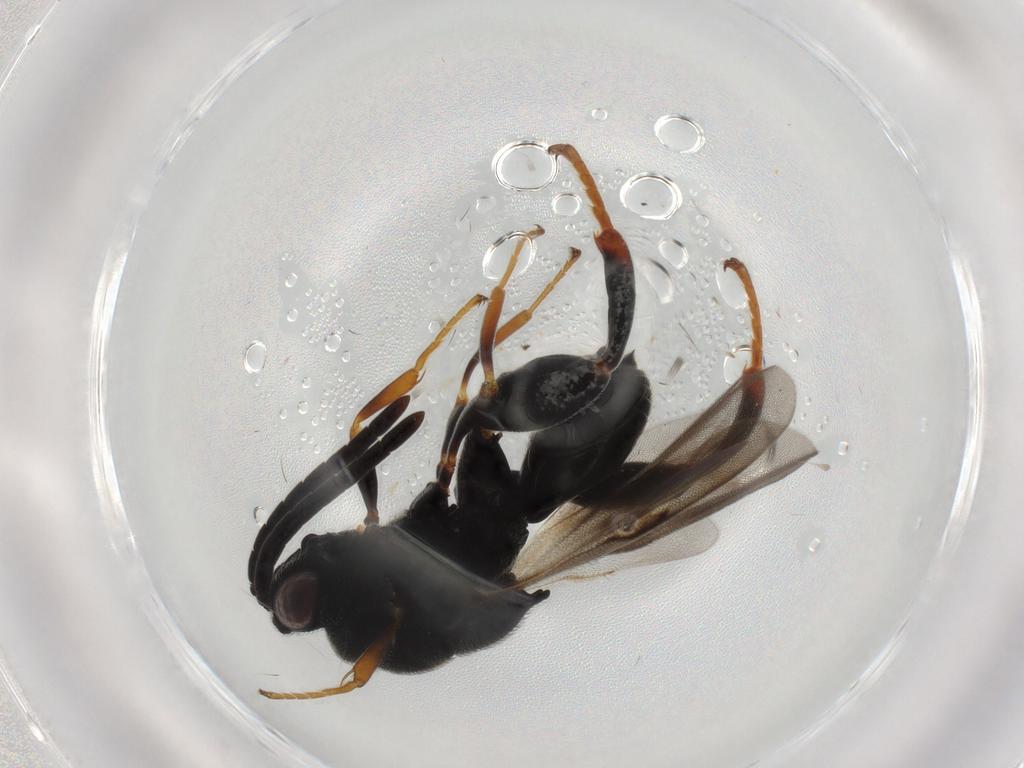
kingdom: Animalia
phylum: Arthropoda
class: Insecta
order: Hymenoptera
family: Chalcididae
